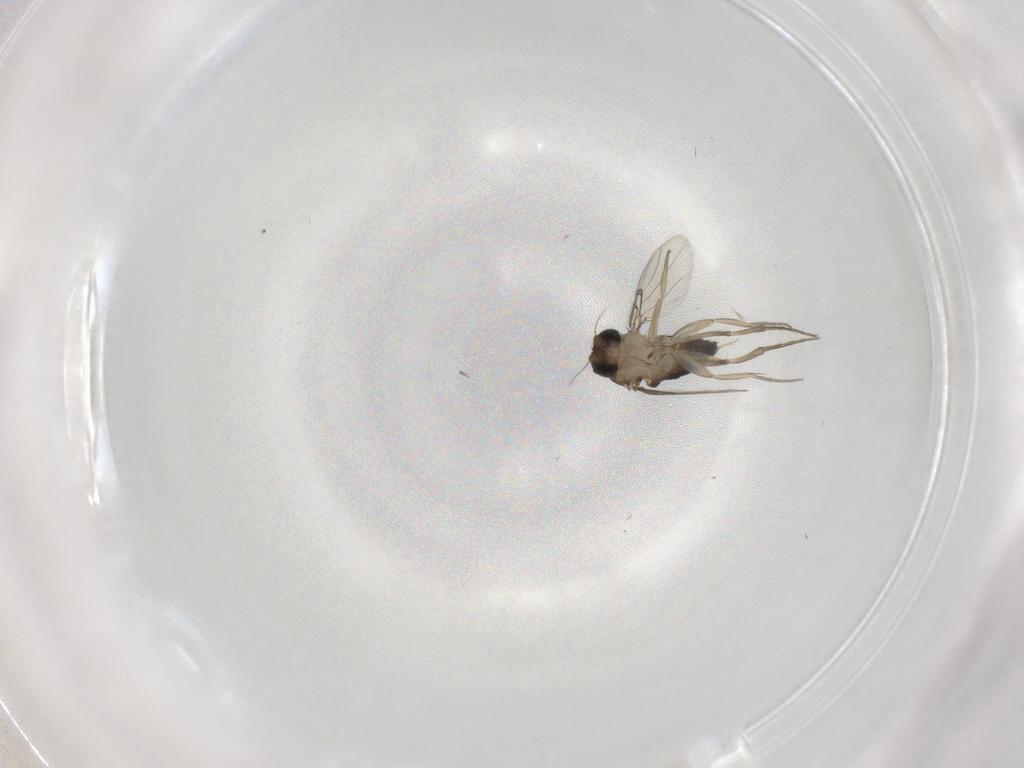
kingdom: Animalia
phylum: Arthropoda
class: Insecta
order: Diptera
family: Phoridae
